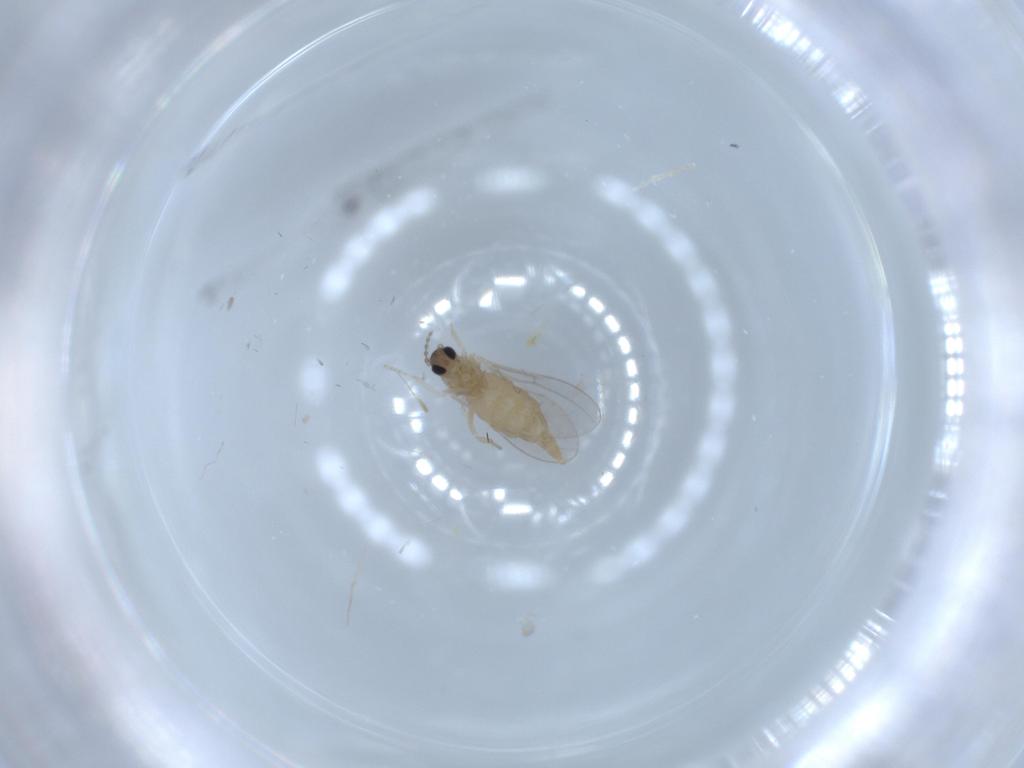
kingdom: Animalia
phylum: Arthropoda
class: Insecta
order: Diptera
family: Cecidomyiidae
